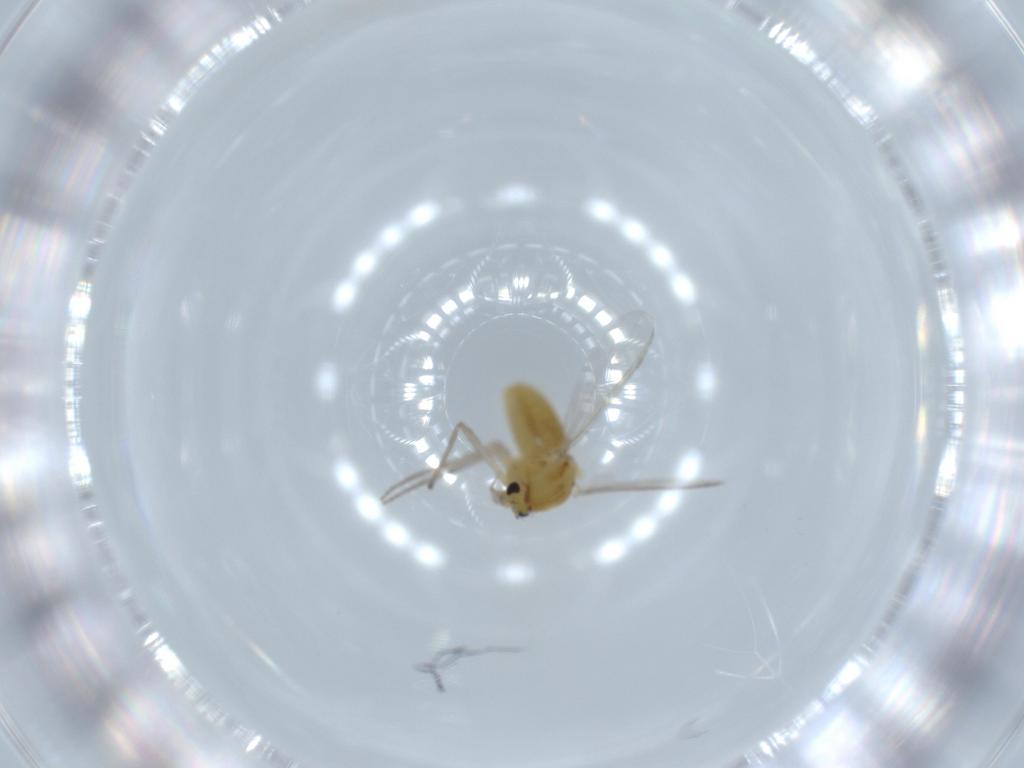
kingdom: Animalia
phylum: Arthropoda
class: Insecta
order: Diptera
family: Chironomidae
